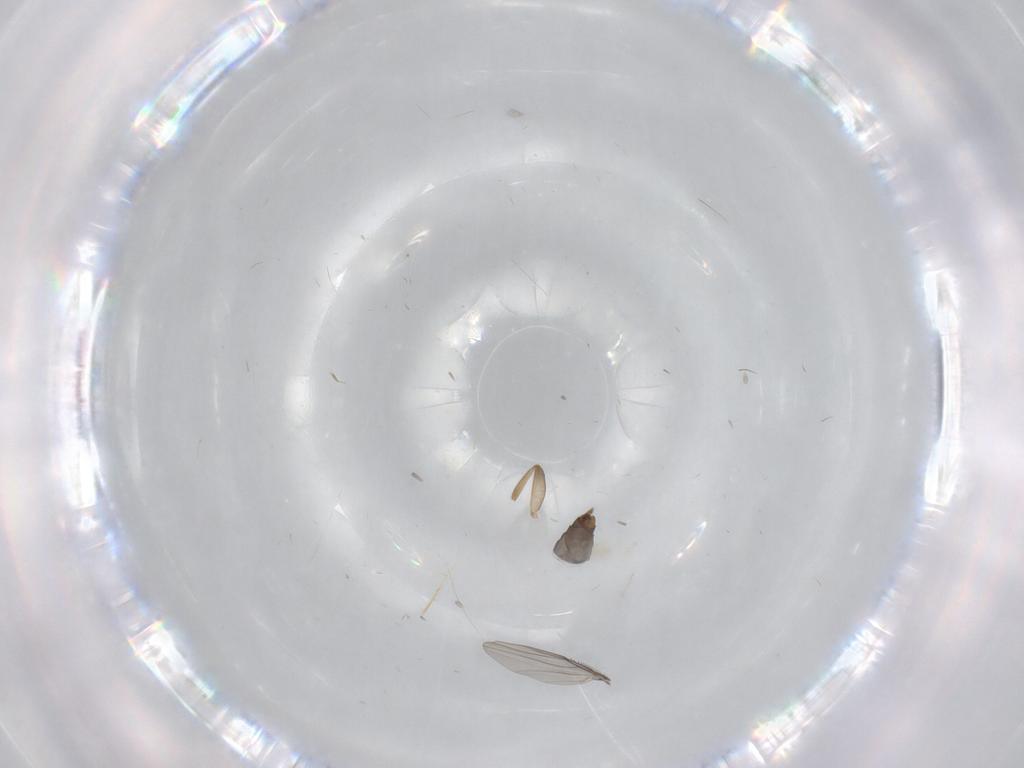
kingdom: Animalia
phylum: Arthropoda
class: Insecta
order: Diptera
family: Phoridae
